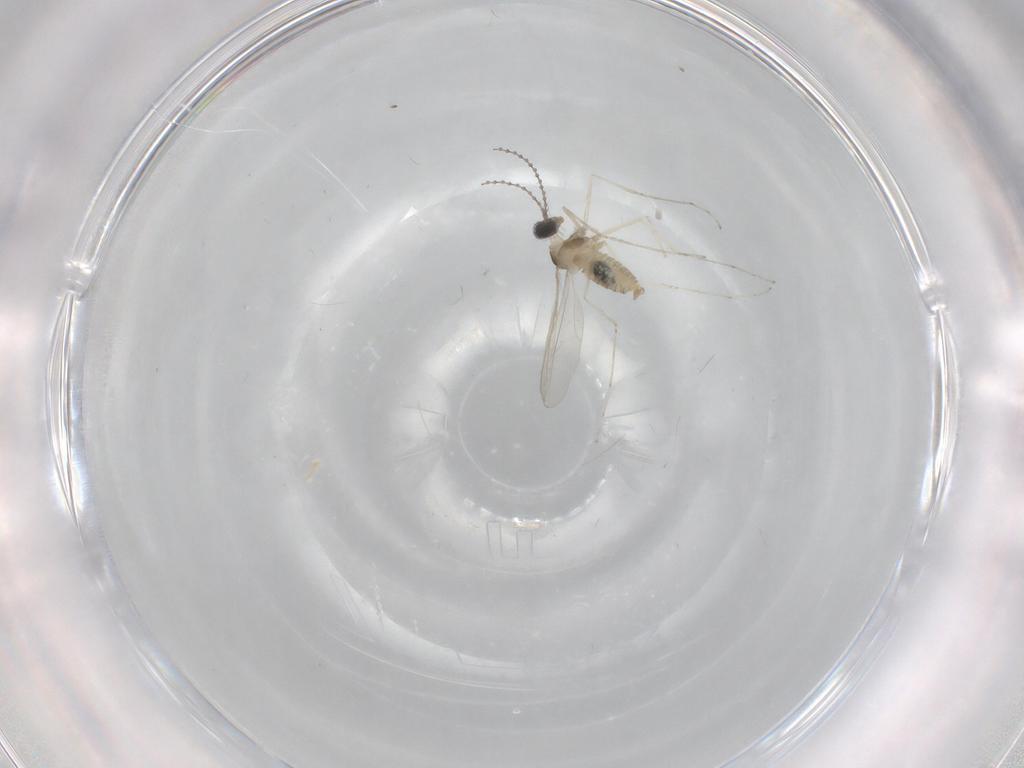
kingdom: Animalia
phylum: Arthropoda
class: Insecta
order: Diptera
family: Cecidomyiidae
